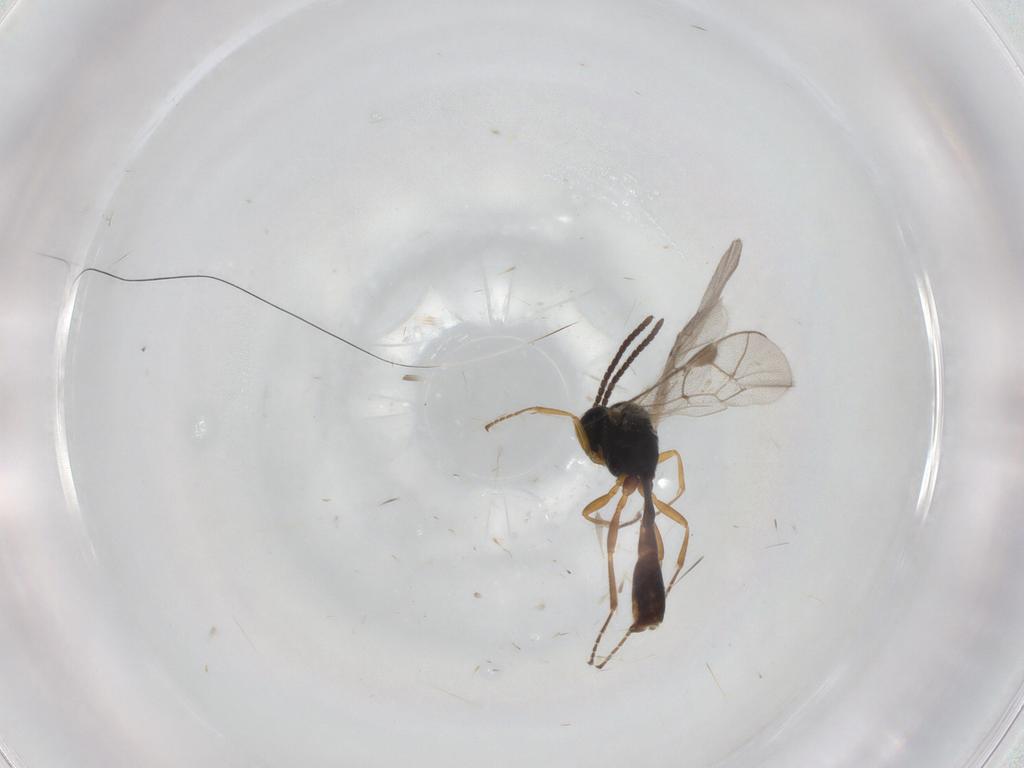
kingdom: Animalia
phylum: Arthropoda
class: Insecta
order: Hymenoptera
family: Ichneumonidae
